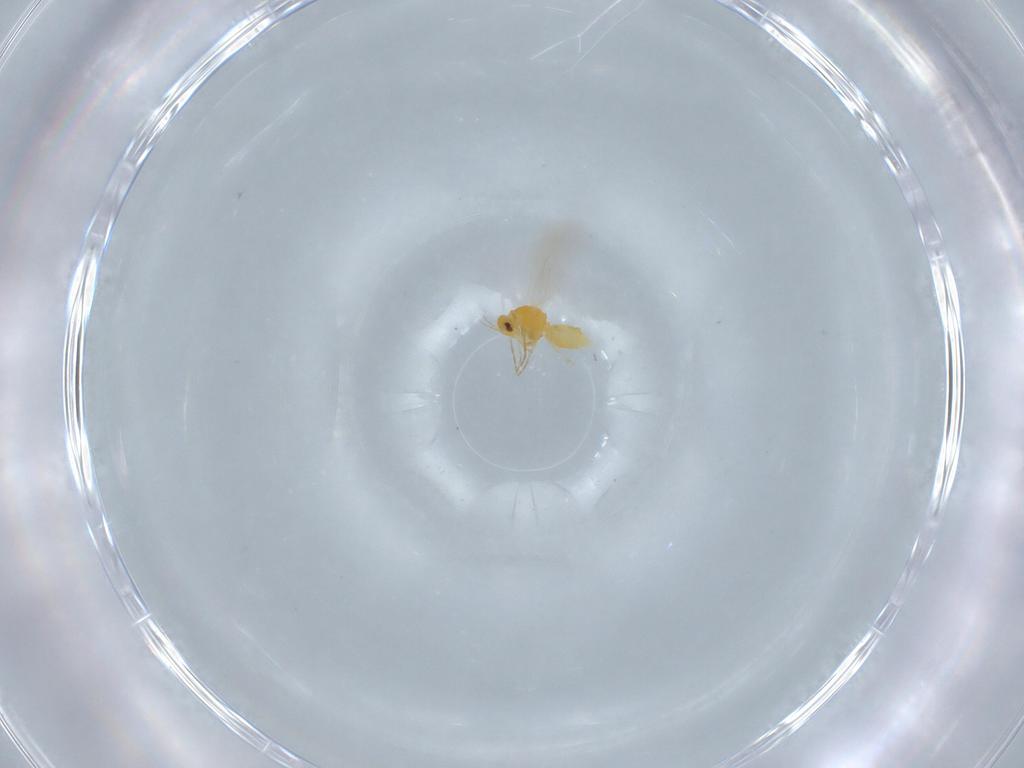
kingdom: Animalia
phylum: Arthropoda
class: Insecta
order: Hemiptera
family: Aleyrodidae
